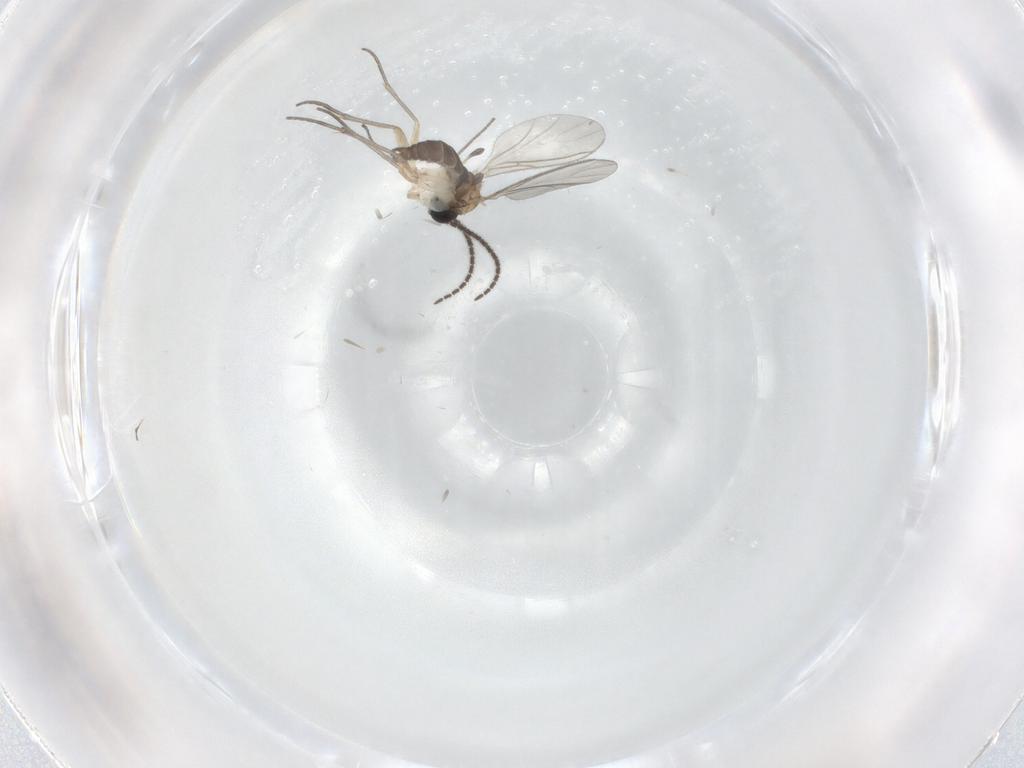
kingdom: Animalia
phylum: Arthropoda
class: Insecta
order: Diptera
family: Sciaridae
